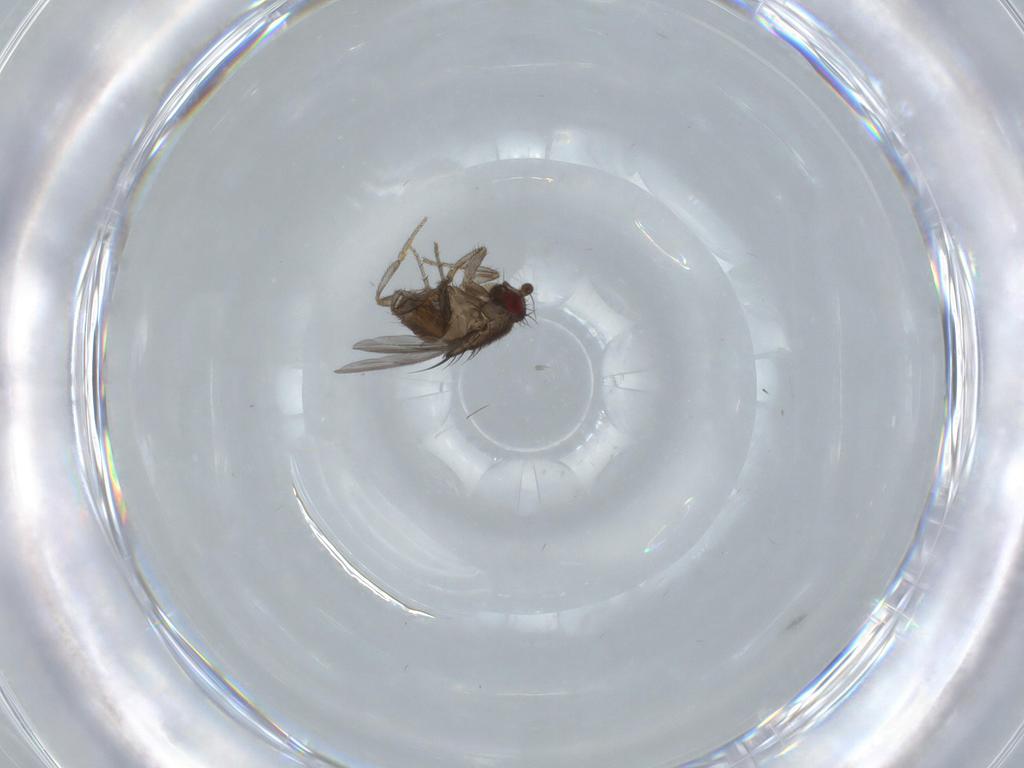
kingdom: Animalia
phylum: Arthropoda
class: Insecta
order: Diptera
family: Sphaeroceridae
